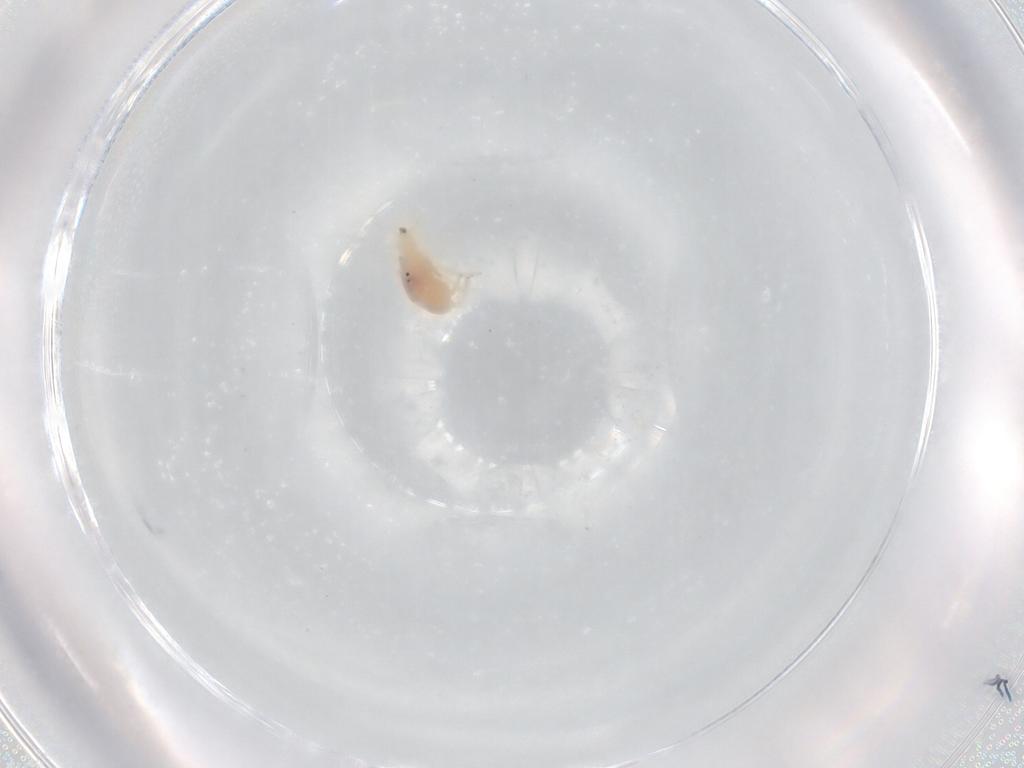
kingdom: Animalia
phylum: Arthropoda
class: Arachnida
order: Trombidiformes
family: Bdellidae
